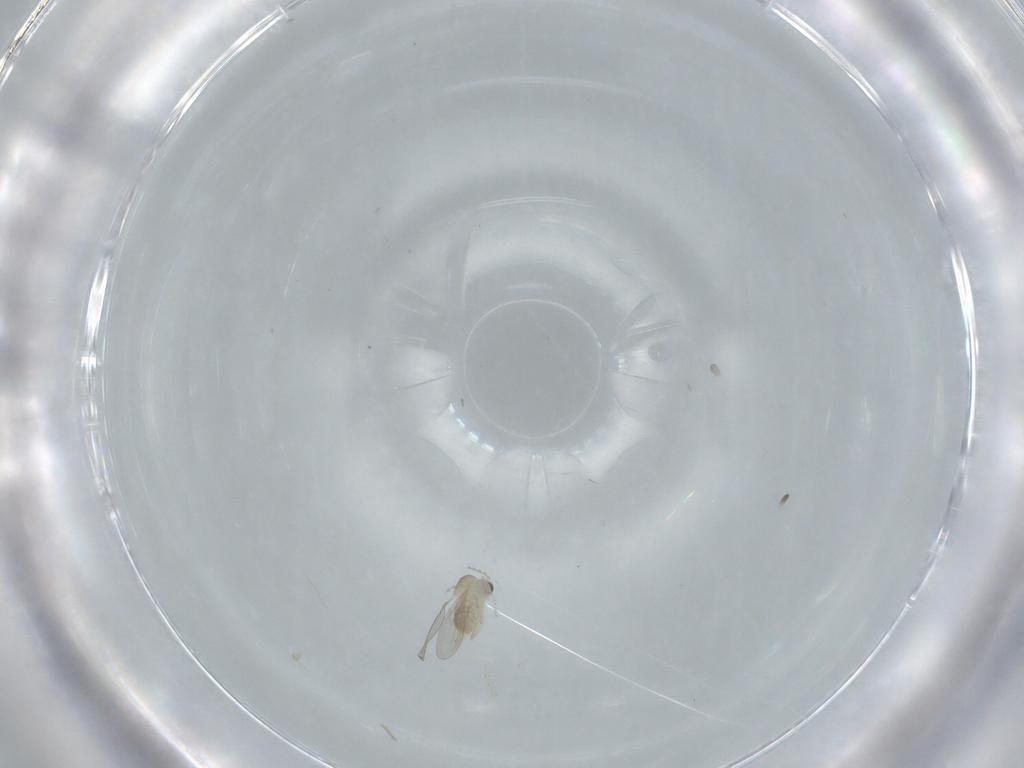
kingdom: Animalia
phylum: Arthropoda
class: Insecta
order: Diptera
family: Cecidomyiidae
